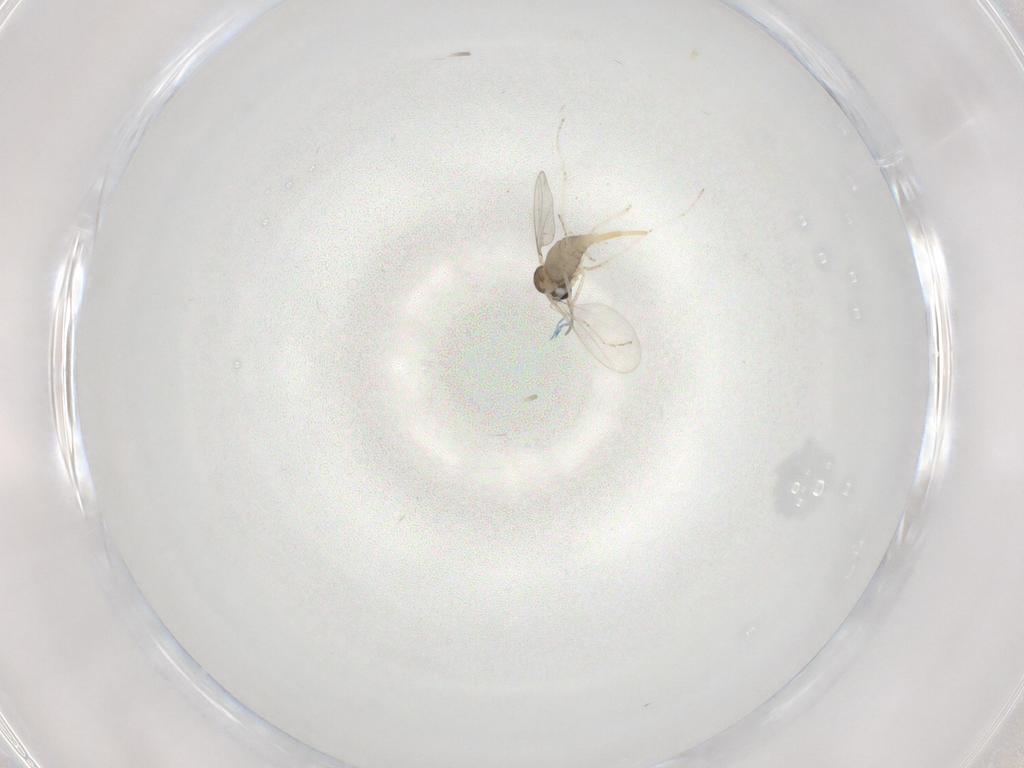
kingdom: Animalia
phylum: Arthropoda
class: Insecta
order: Diptera
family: Cecidomyiidae
